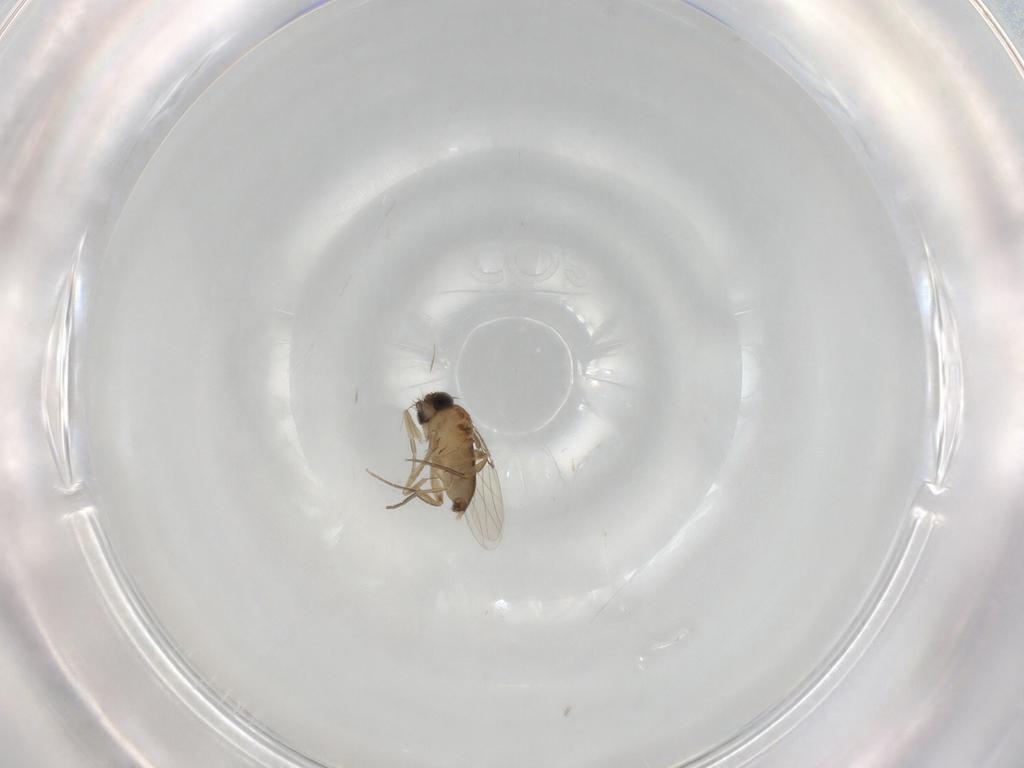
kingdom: Animalia
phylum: Arthropoda
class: Insecta
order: Diptera
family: Phoridae
